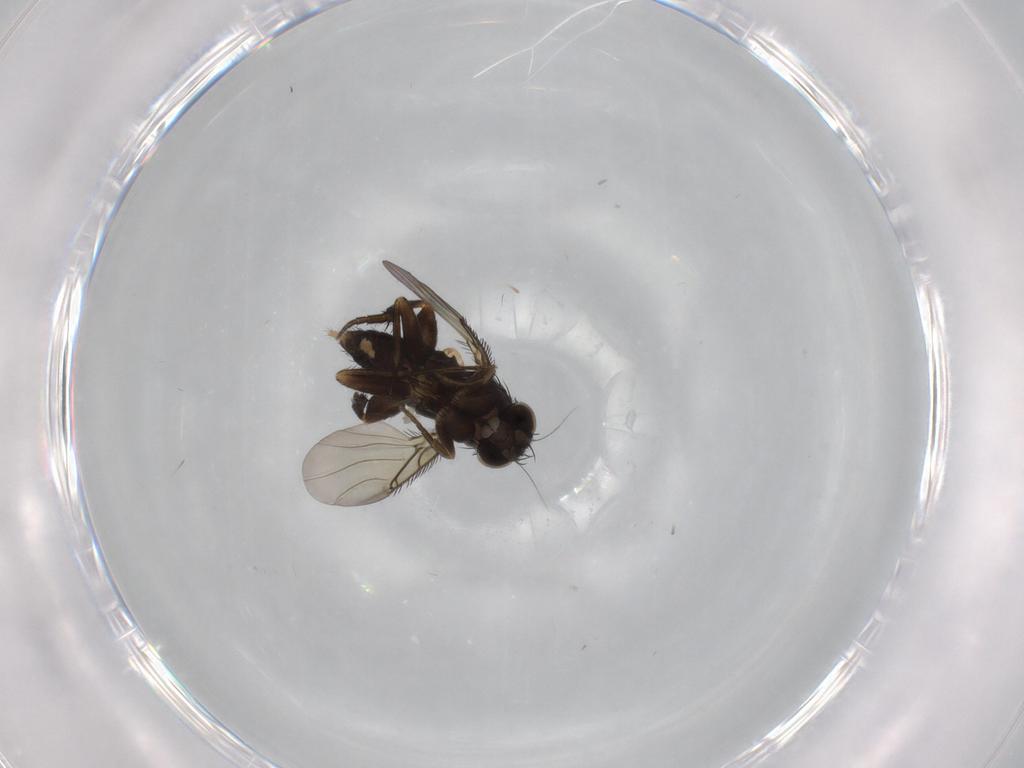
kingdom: Animalia
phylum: Arthropoda
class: Insecta
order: Diptera
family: Phoridae
